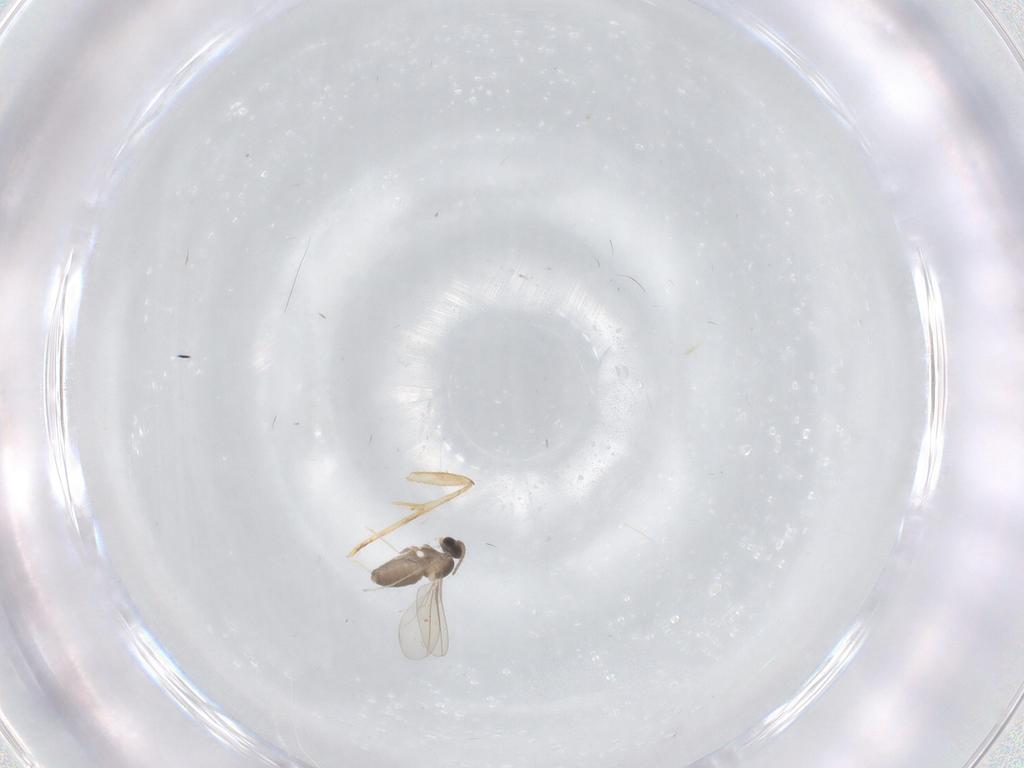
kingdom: Animalia
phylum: Arthropoda
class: Insecta
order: Diptera
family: Cecidomyiidae
